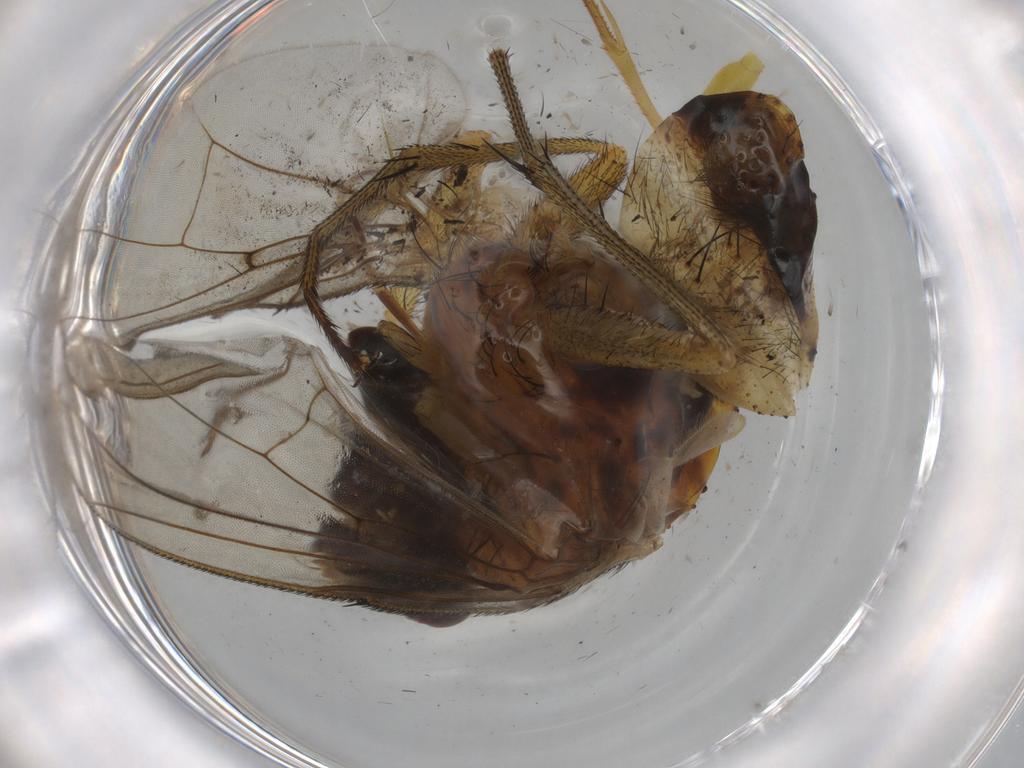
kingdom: Animalia
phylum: Arthropoda
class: Insecta
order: Diptera
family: Muscidae
